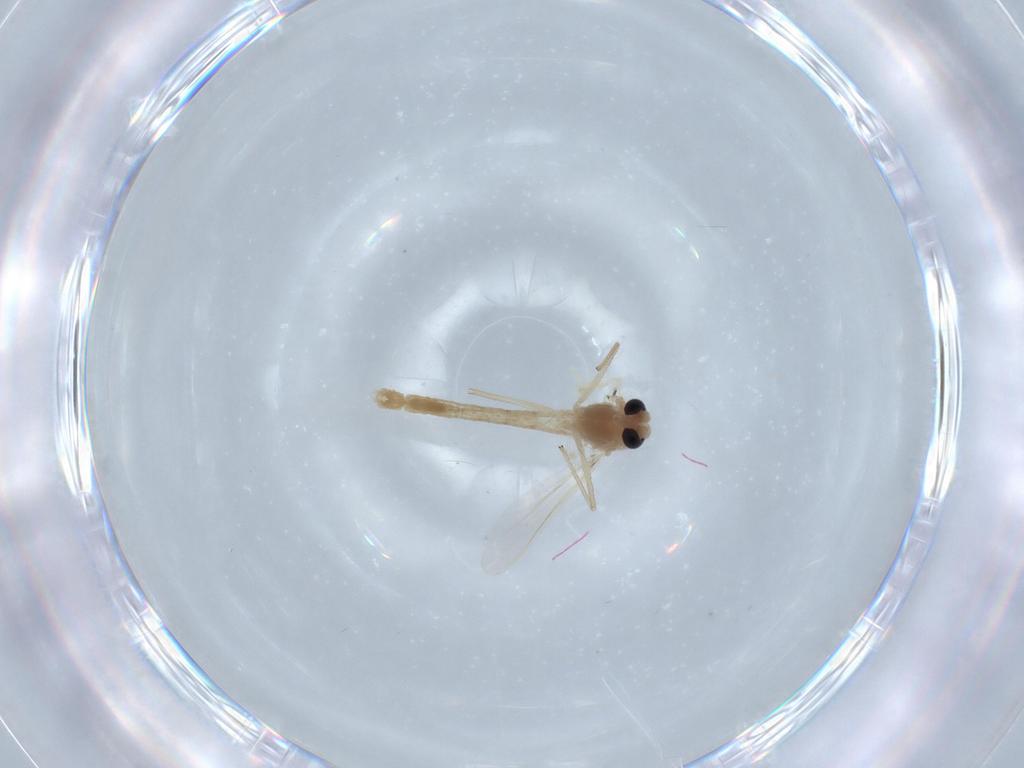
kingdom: Animalia
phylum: Arthropoda
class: Insecta
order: Diptera
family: Chironomidae
